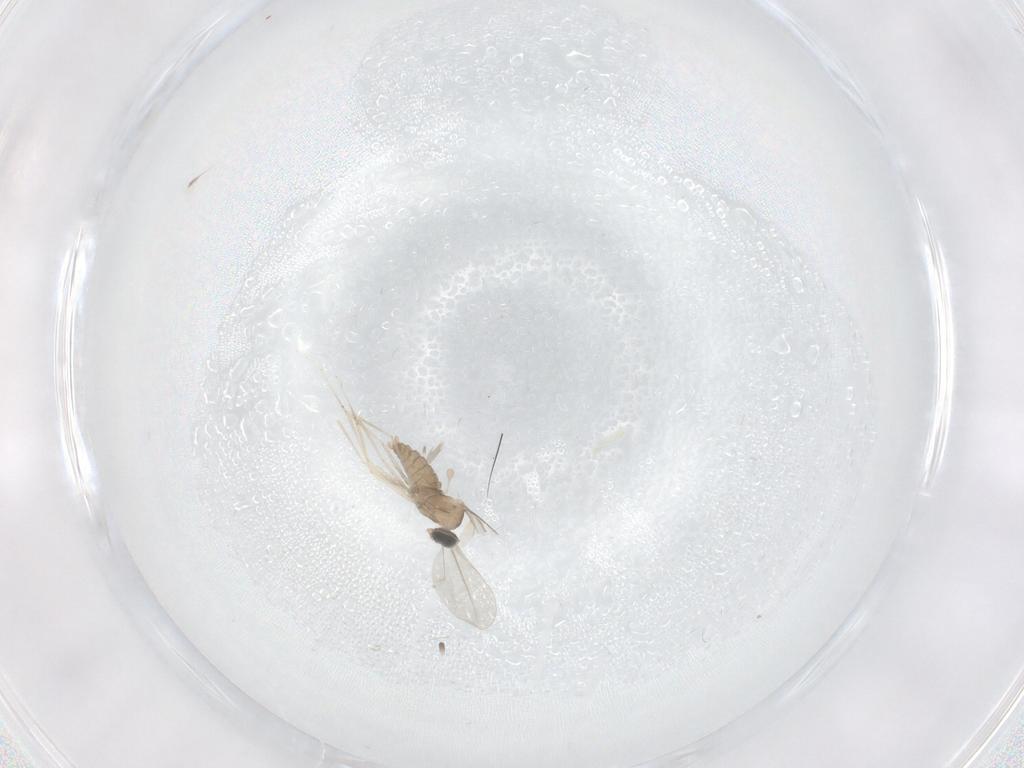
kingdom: Animalia
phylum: Arthropoda
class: Insecta
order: Diptera
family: Cecidomyiidae
